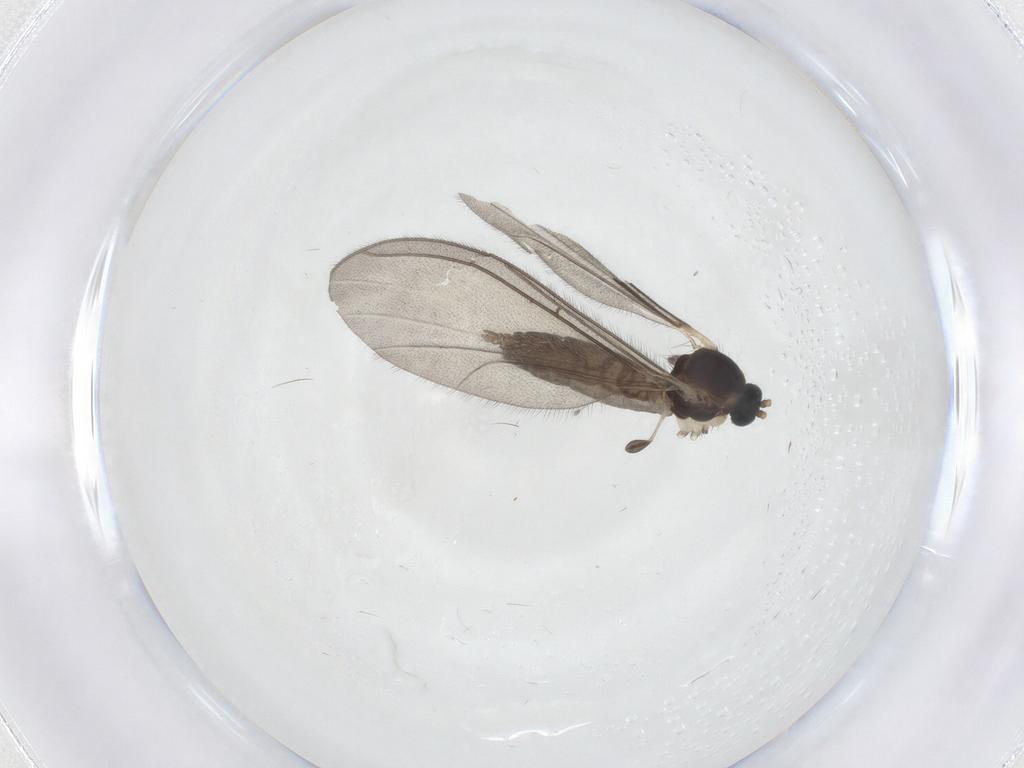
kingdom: Animalia
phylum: Arthropoda
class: Insecta
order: Diptera
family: Mycetophilidae
